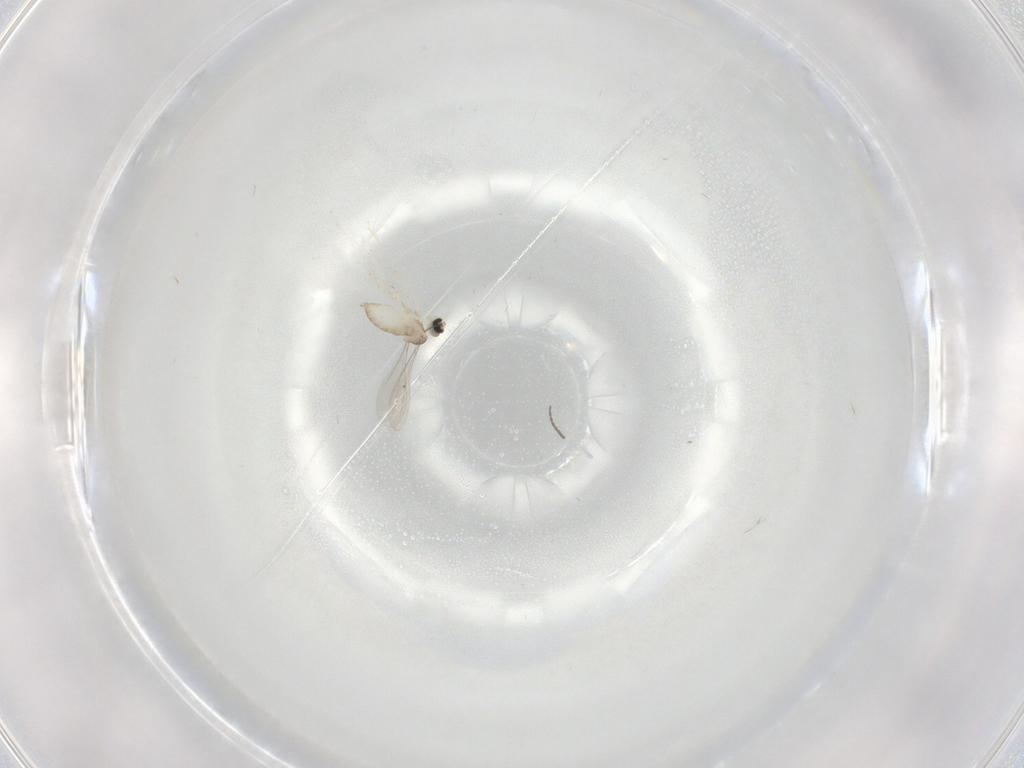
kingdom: Animalia
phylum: Arthropoda
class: Insecta
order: Diptera
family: Cecidomyiidae
